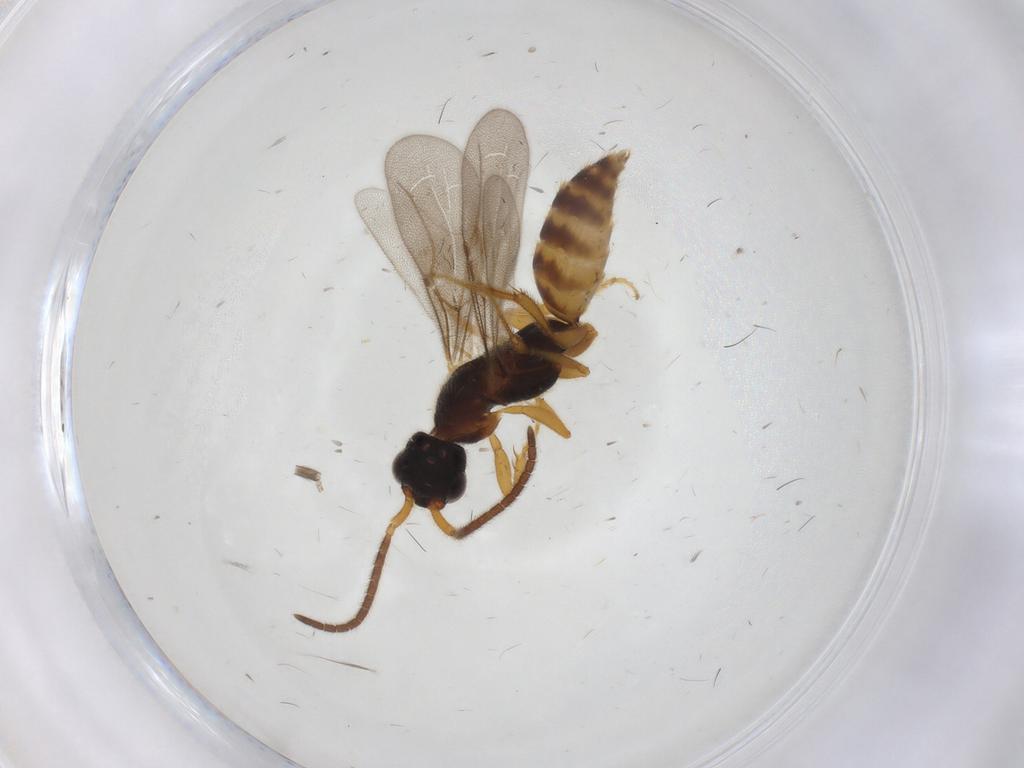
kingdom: Animalia
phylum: Arthropoda
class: Insecta
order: Hymenoptera
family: Bethylidae
